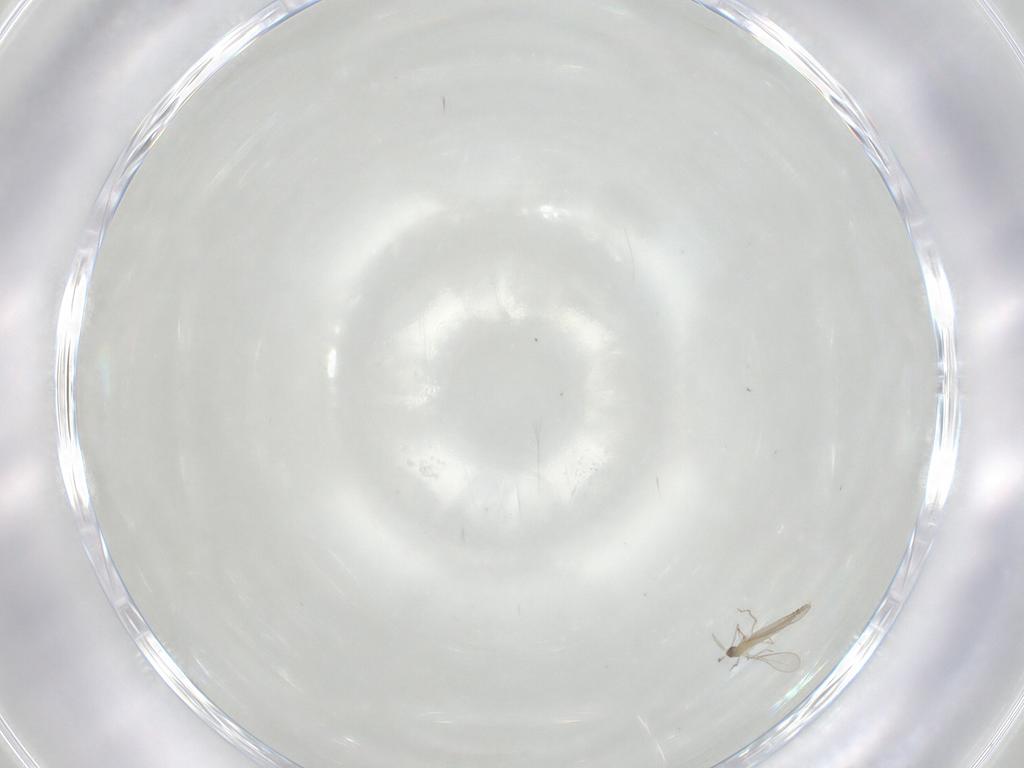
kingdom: Animalia
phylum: Arthropoda
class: Insecta
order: Diptera
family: Cecidomyiidae
